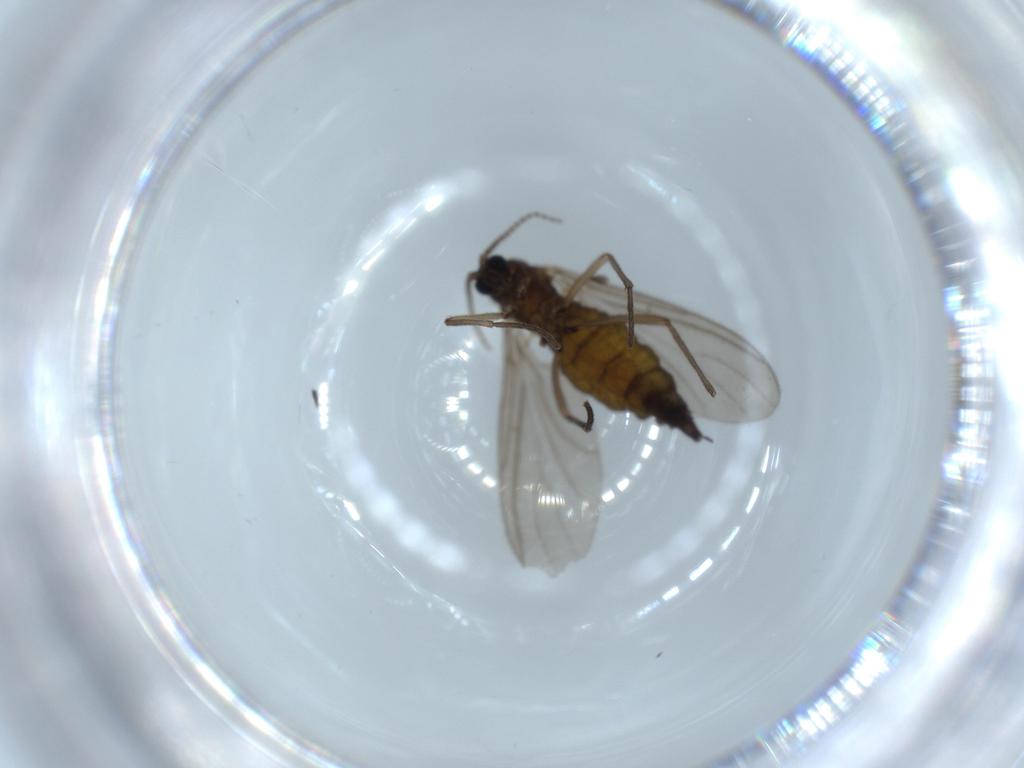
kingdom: Animalia
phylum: Arthropoda
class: Insecta
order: Diptera
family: Sciaridae
